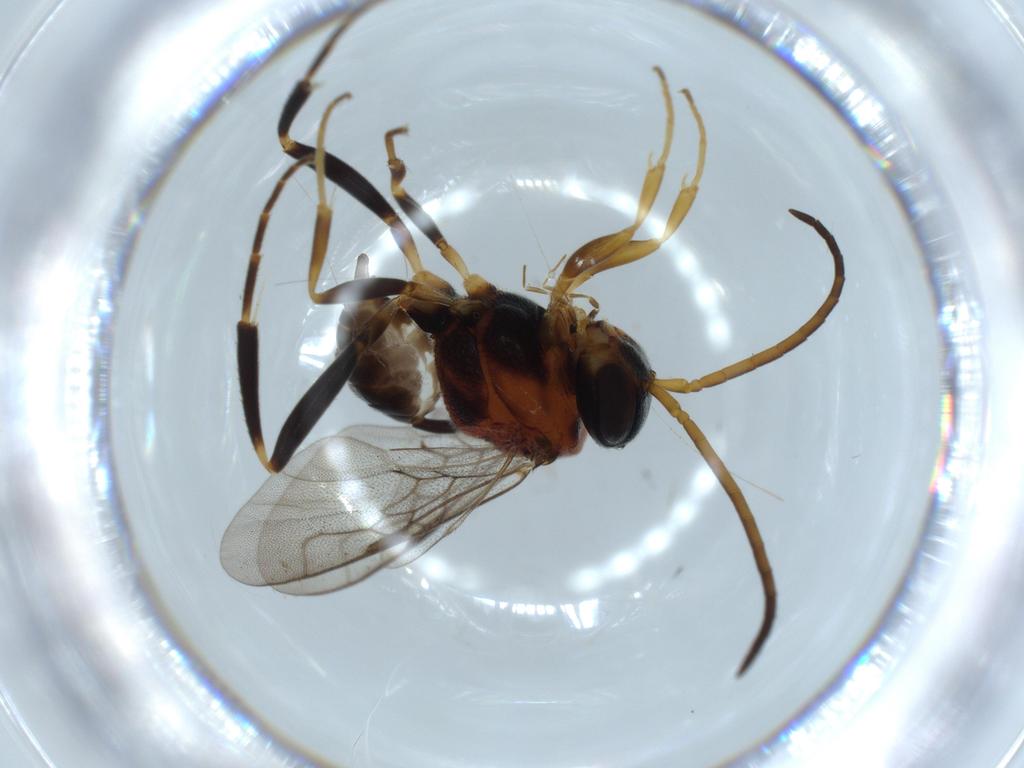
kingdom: Animalia
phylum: Arthropoda
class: Insecta
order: Hymenoptera
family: Evaniidae
